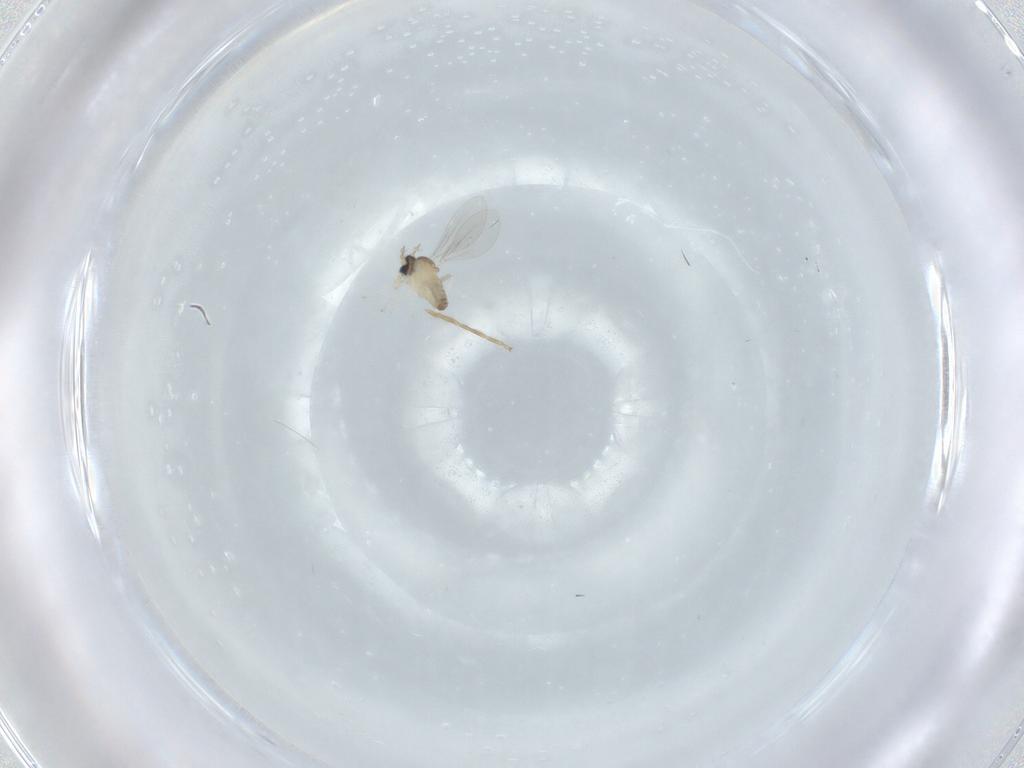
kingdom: Animalia
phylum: Arthropoda
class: Insecta
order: Diptera
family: Cecidomyiidae
